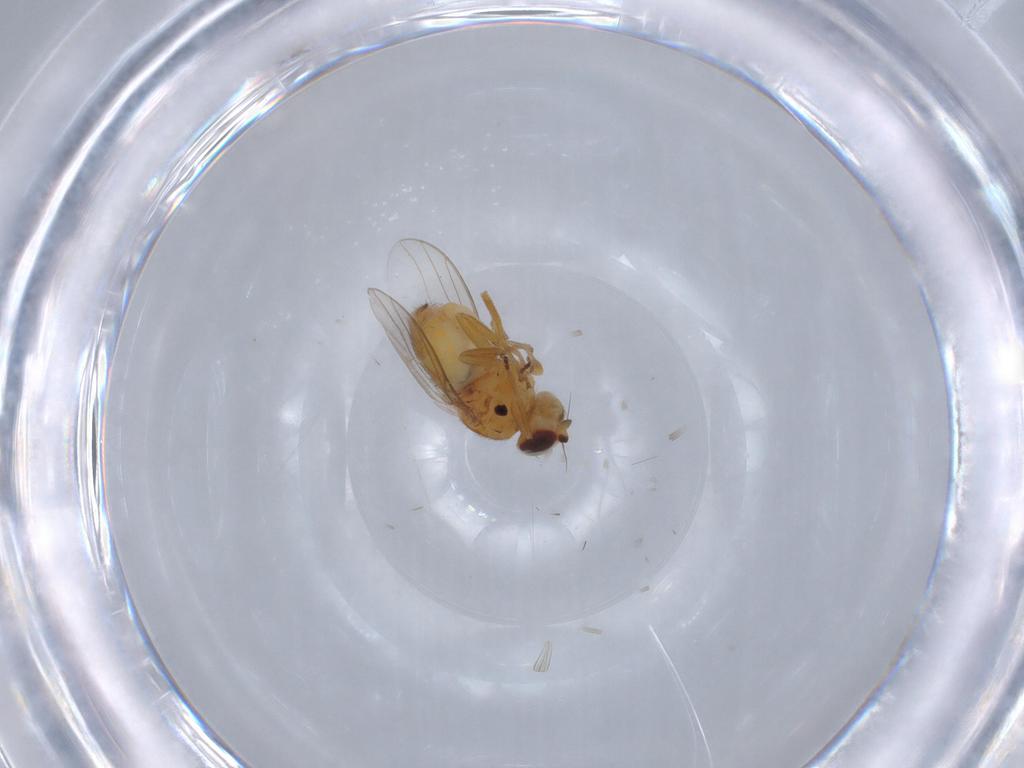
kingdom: Animalia
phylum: Arthropoda
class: Insecta
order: Diptera
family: Chloropidae
